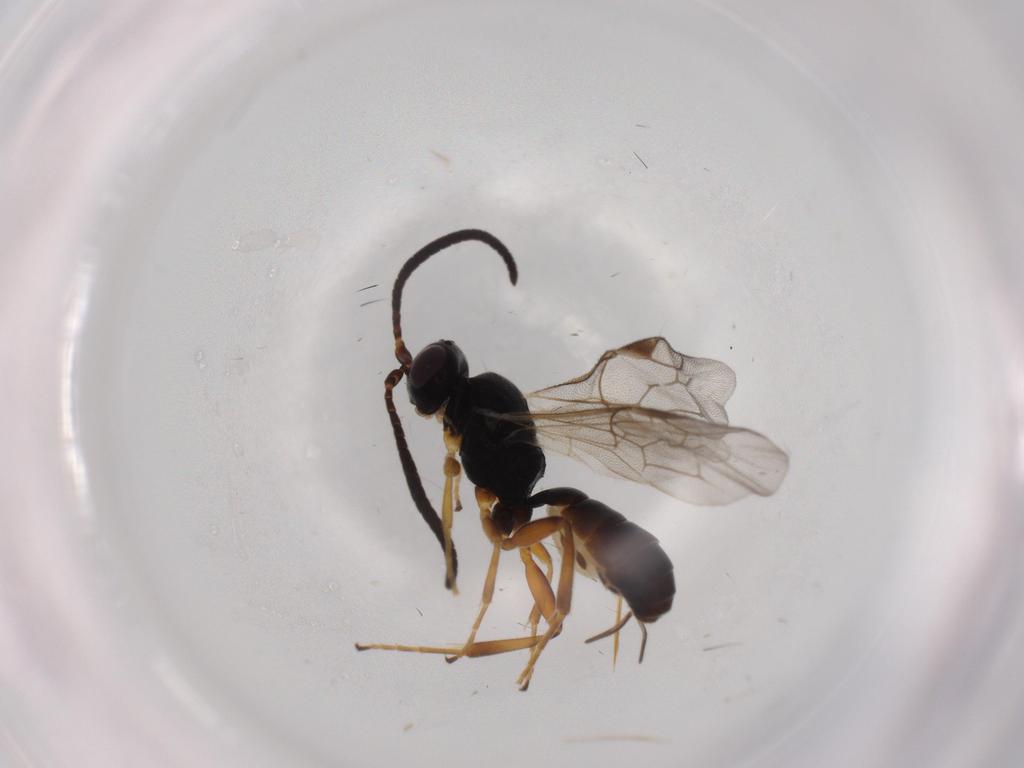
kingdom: Animalia
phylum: Arthropoda
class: Insecta
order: Hymenoptera
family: Ichneumonidae
